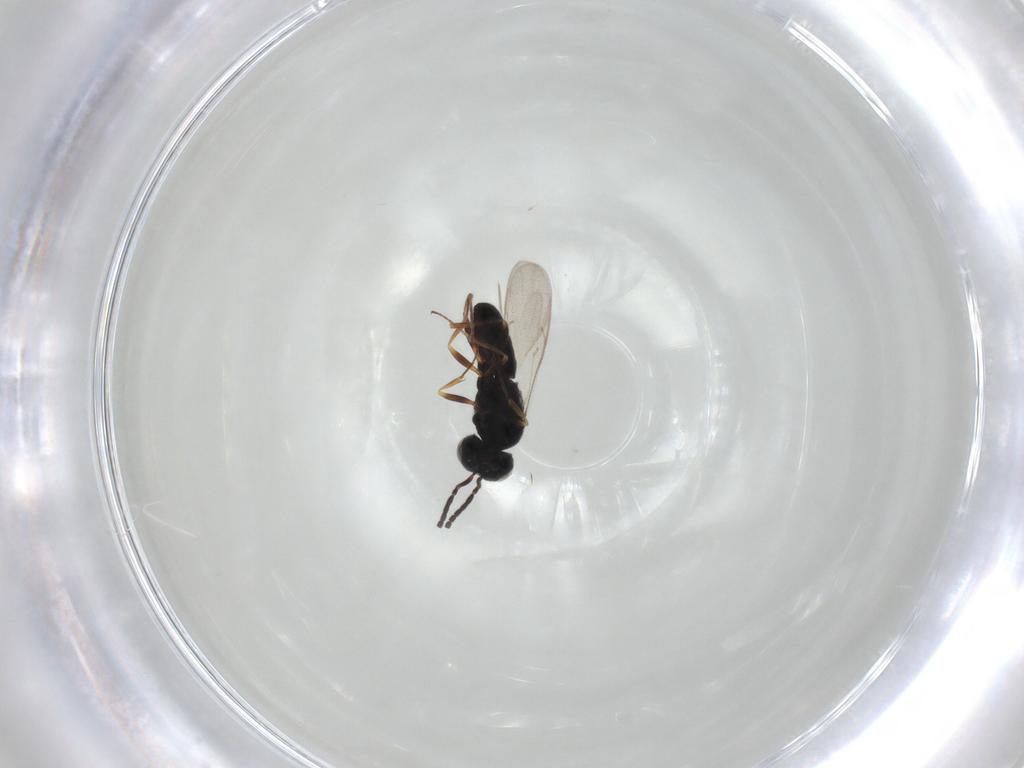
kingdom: Animalia
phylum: Arthropoda
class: Insecta
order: Hymenoptera
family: Scelionidae
